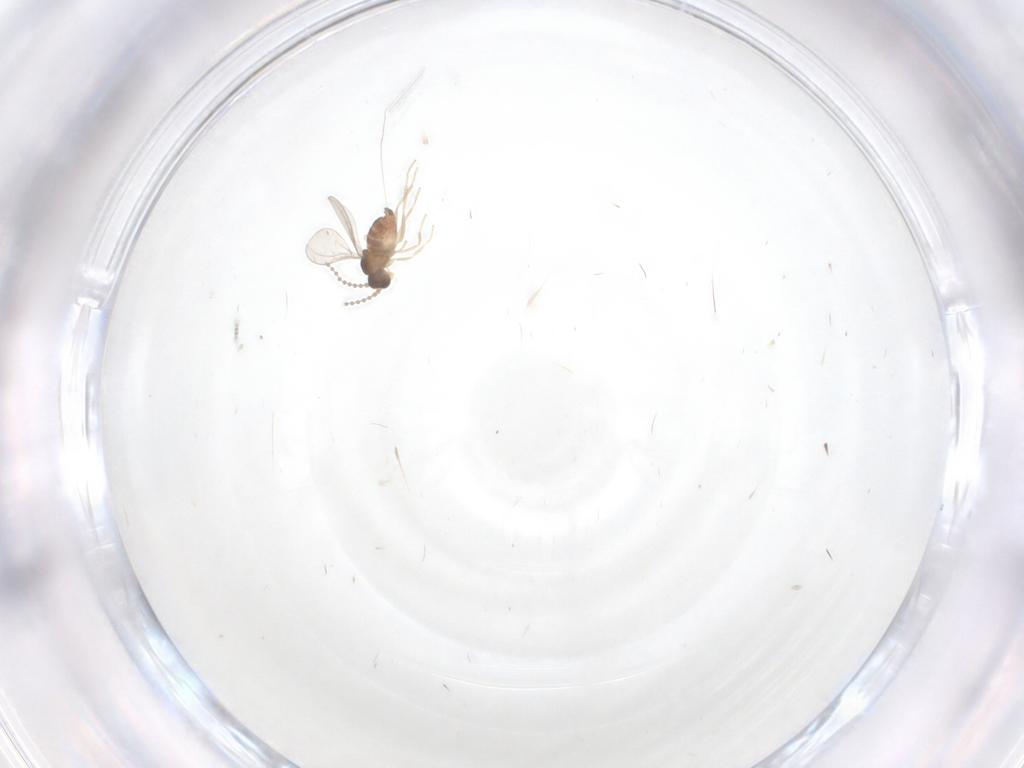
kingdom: Animalia
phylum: Arthropoda
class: Insecta
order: Diptera
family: Cecidomyiidae
